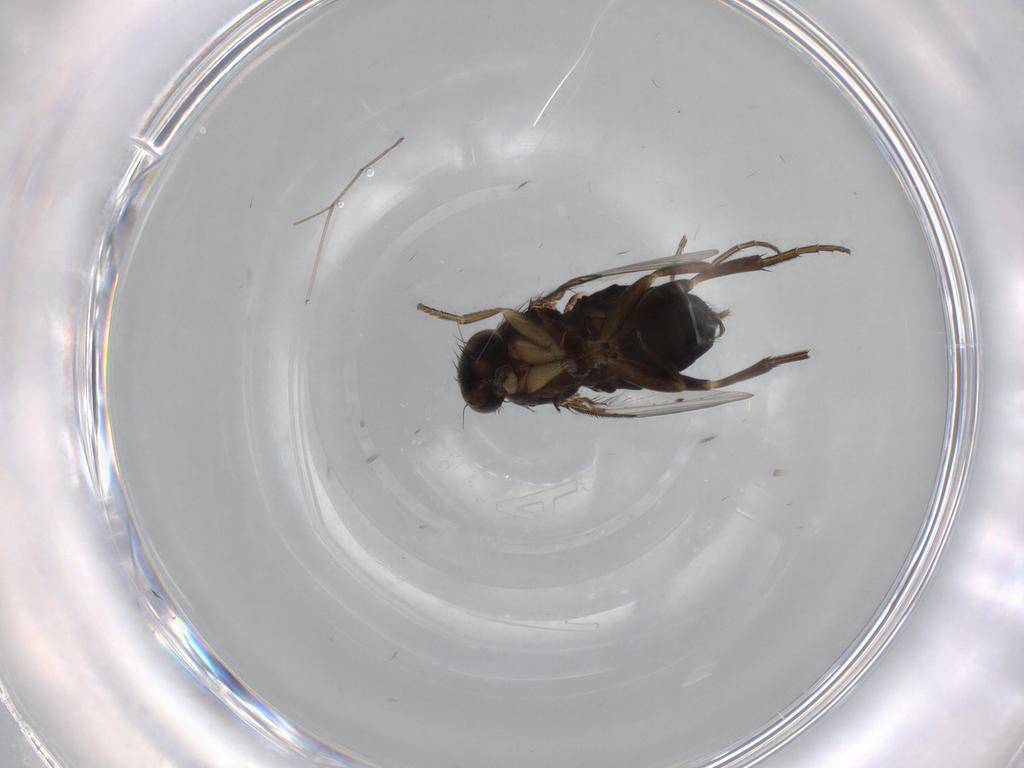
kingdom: Animalia
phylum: Arthropoda
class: Insecta
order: Diptera
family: Phoridae
